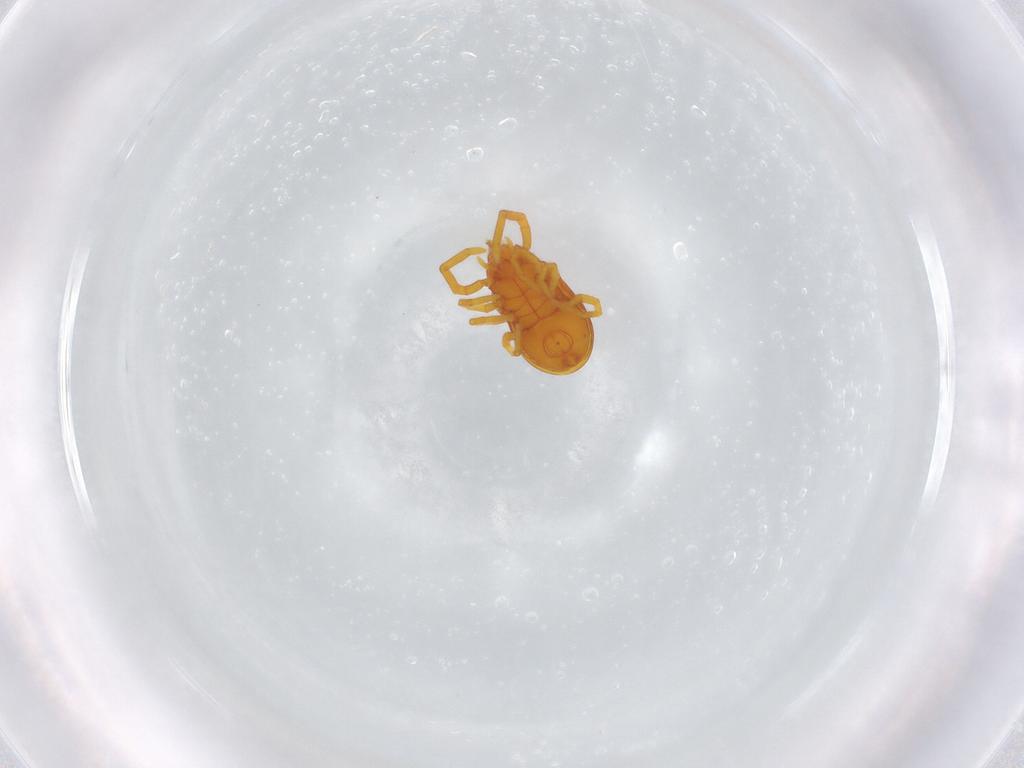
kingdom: Animalia
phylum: Arthropoda
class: Arachnida
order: Trombidiformes
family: Labidostommidae
